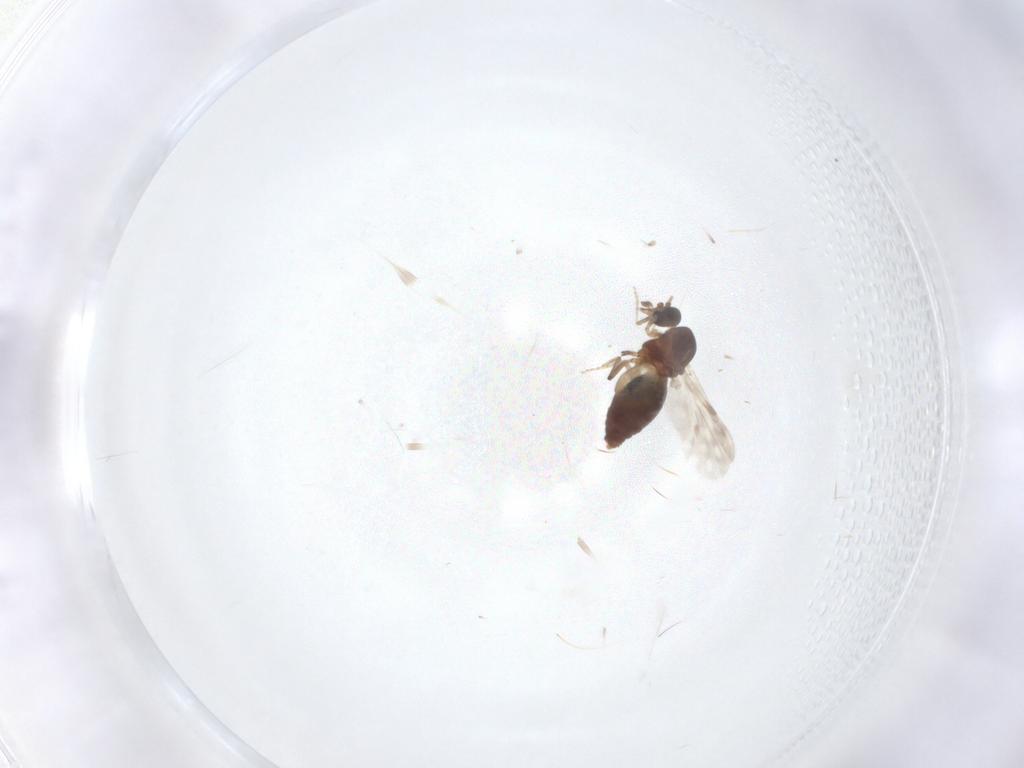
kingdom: Animalia
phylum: Arthropoda
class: Insecta
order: Diptera
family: Ceratopogonidae
